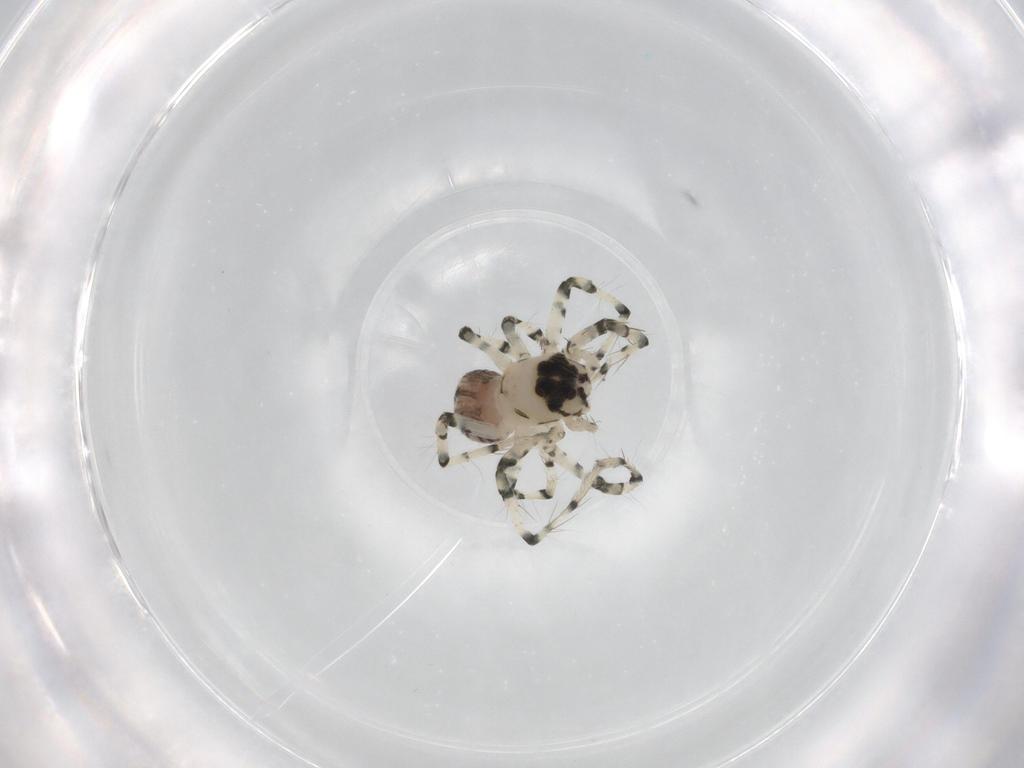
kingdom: Animalia
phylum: Arthropoda
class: Arachnida
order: Araneae
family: Oxyopidae
